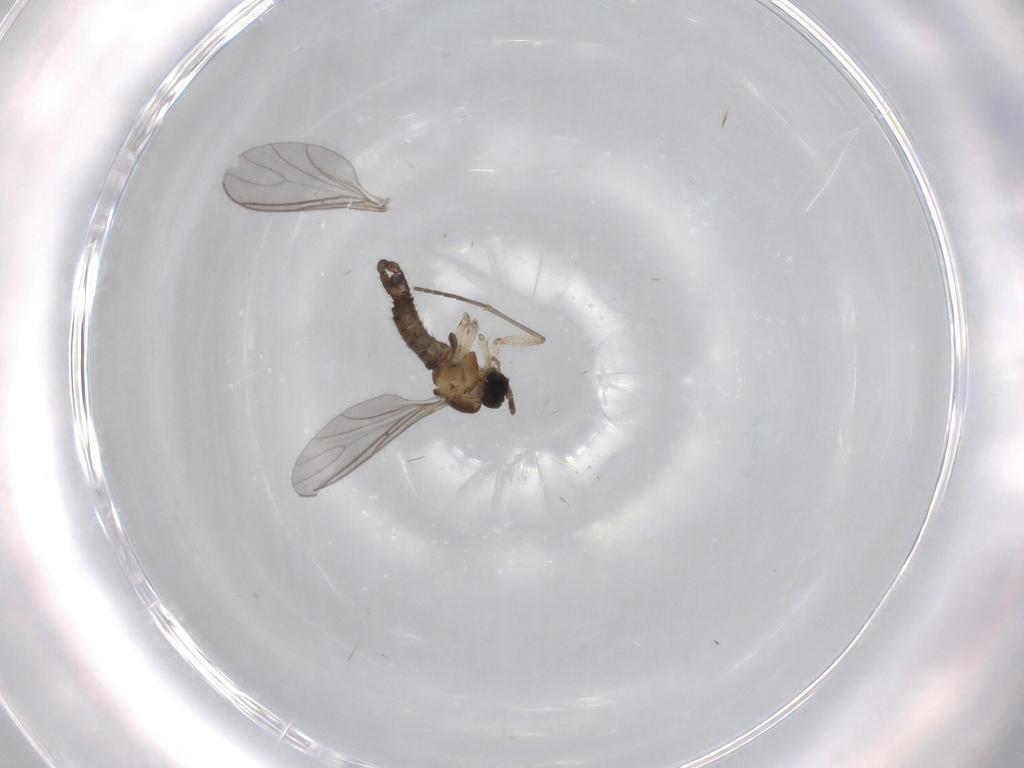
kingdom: Animalia
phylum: Arthropoda
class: Insecta
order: Diptera
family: Sciaridae
